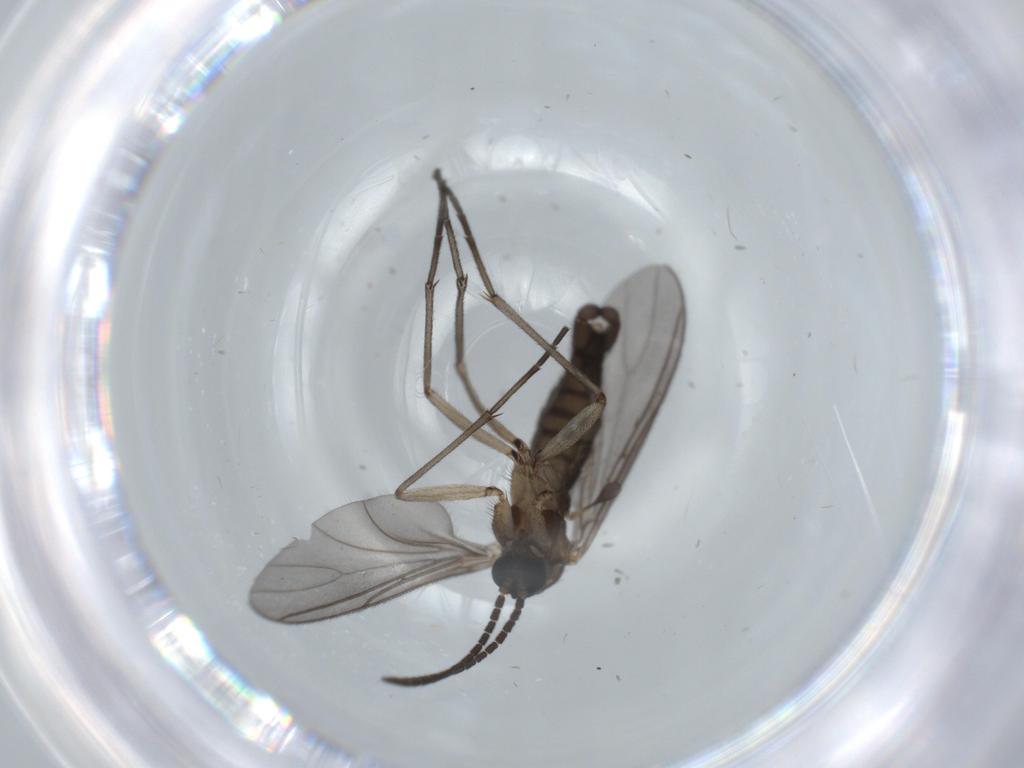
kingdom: Animalia
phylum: Arthropoda
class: Insecta
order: Diptera
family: Sciaridae
